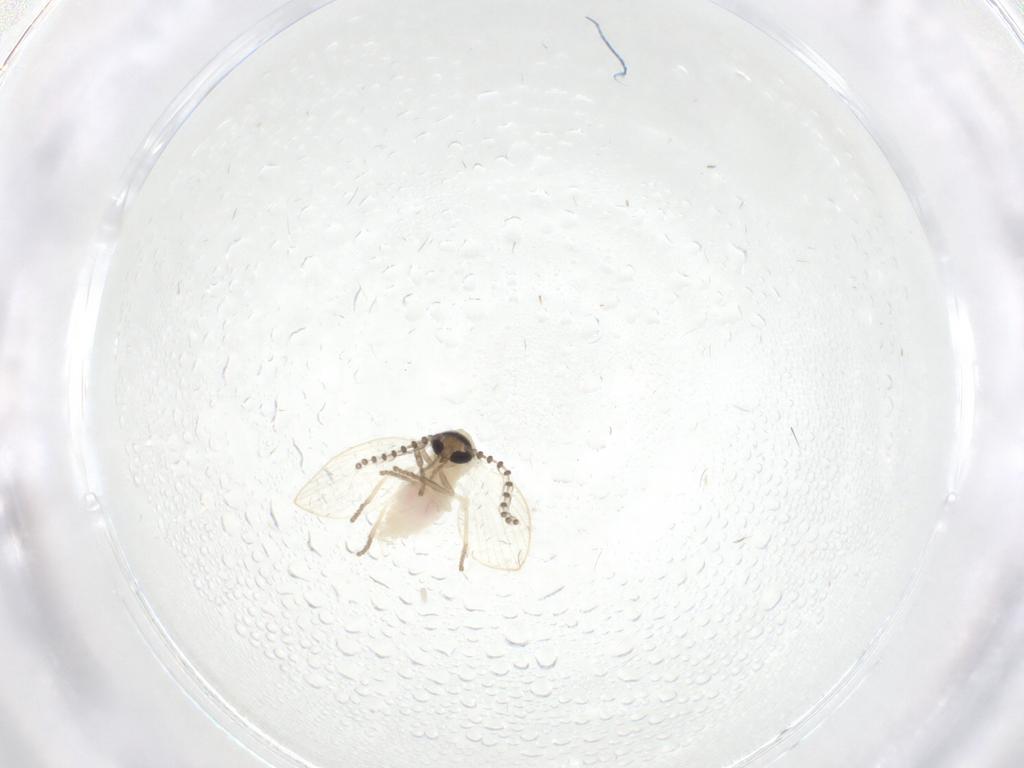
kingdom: Animalia
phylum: Arthropoda
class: Insecta
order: Diptera
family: Psychodidae
